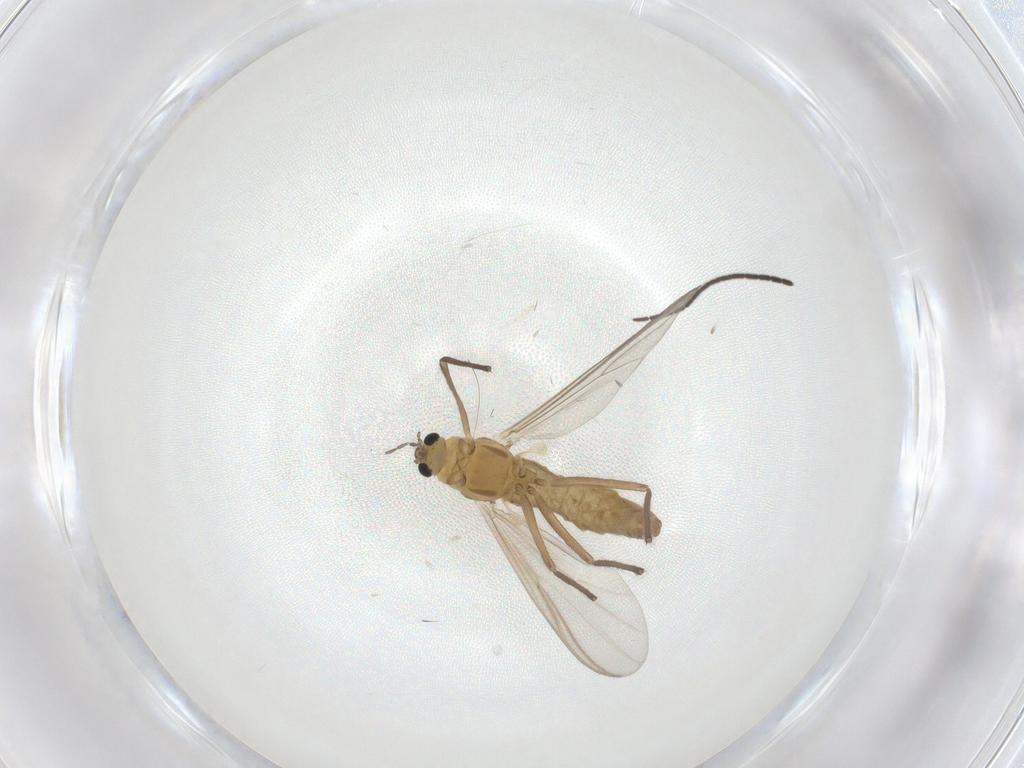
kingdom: Animalia
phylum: Arthropoda
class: Insecta
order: Diptera
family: Chironomidae
